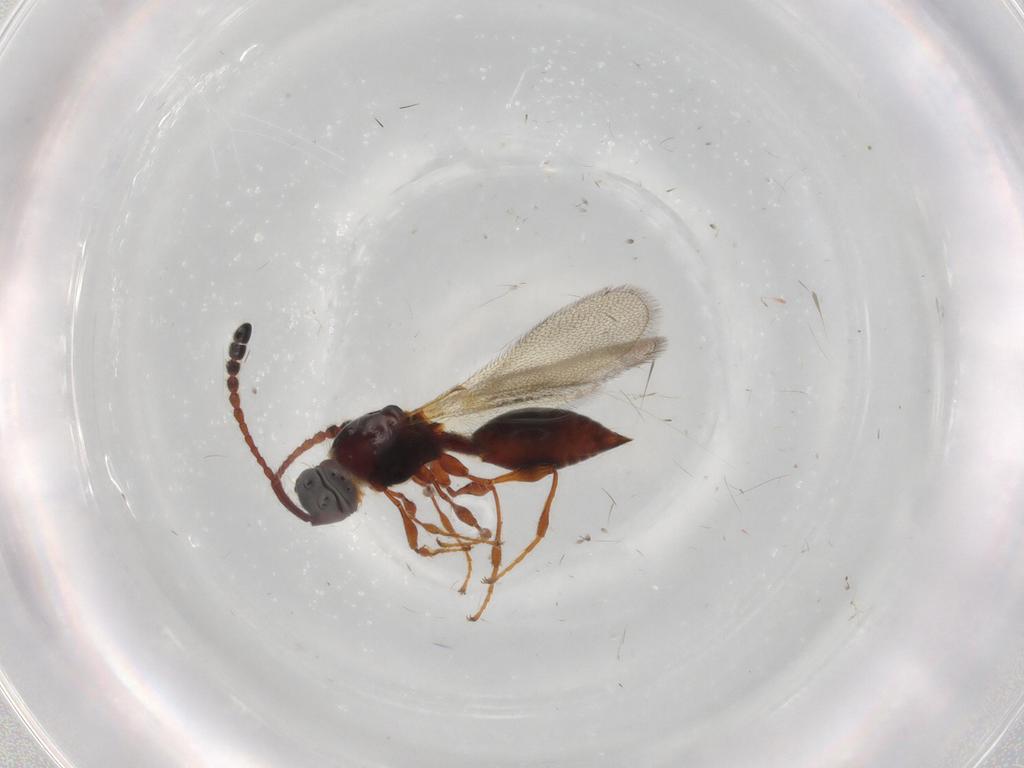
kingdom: Animalia
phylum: Arthropoda
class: Insecta
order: Hymenoptera
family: Diapriidae
